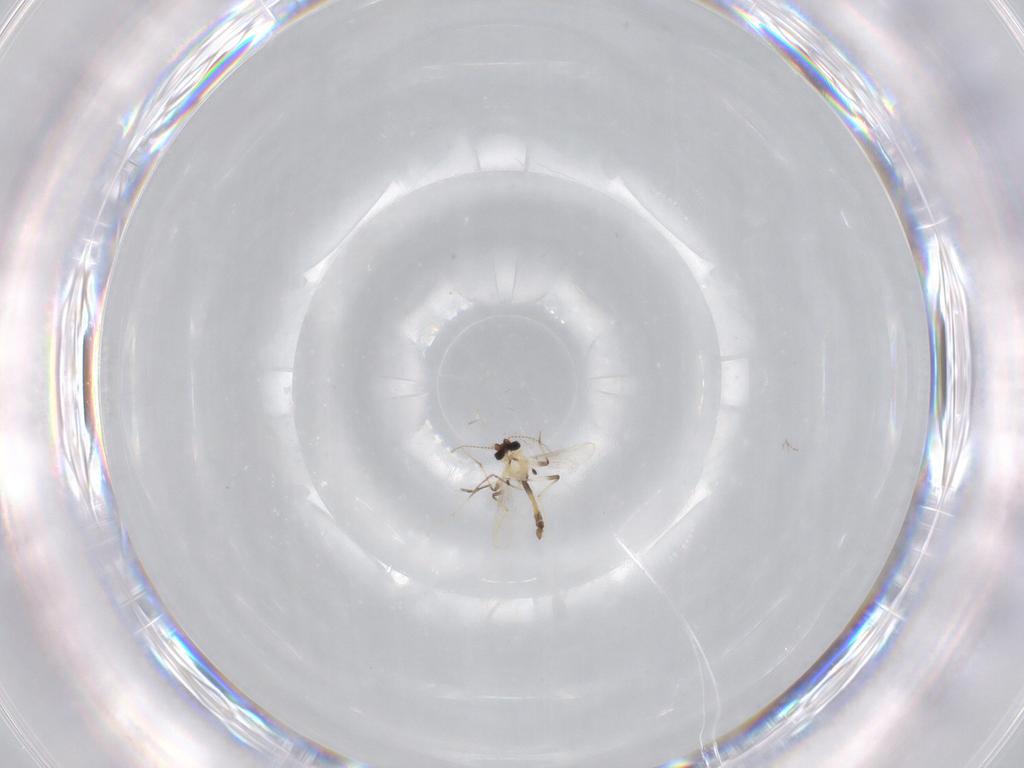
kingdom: Animalia
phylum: Arthropoda
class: Insecta
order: Diptera
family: Chironomidae
